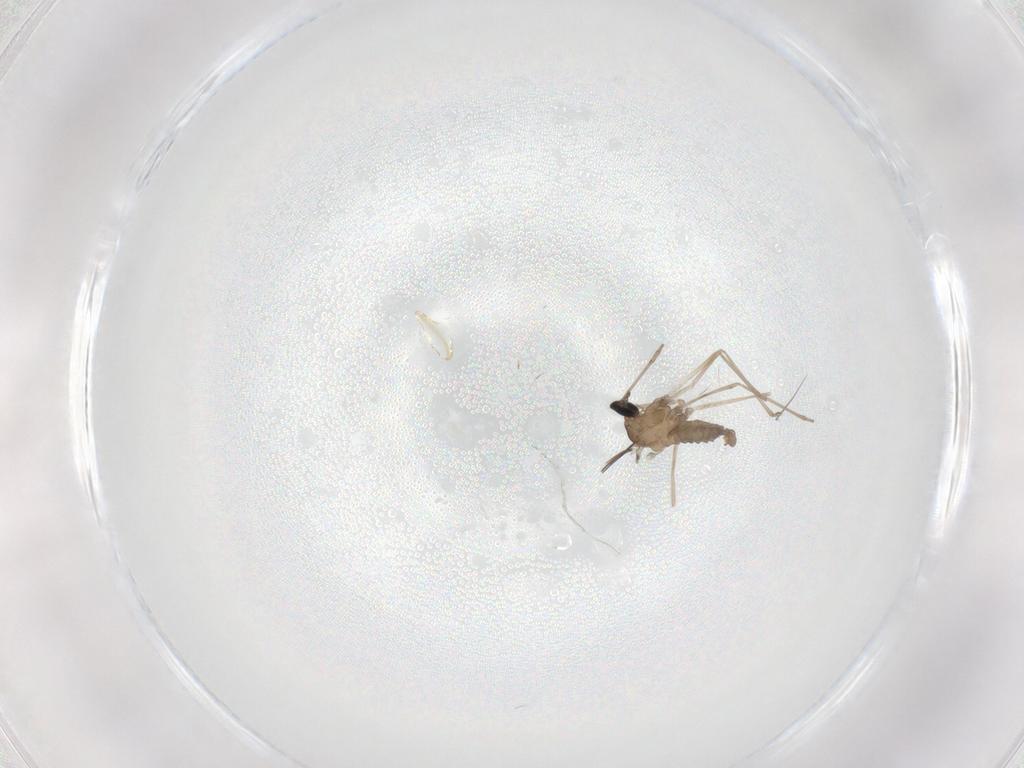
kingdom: Animalia
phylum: Arthropoda
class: Insecta
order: Diptera
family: Cecidomyiidae
